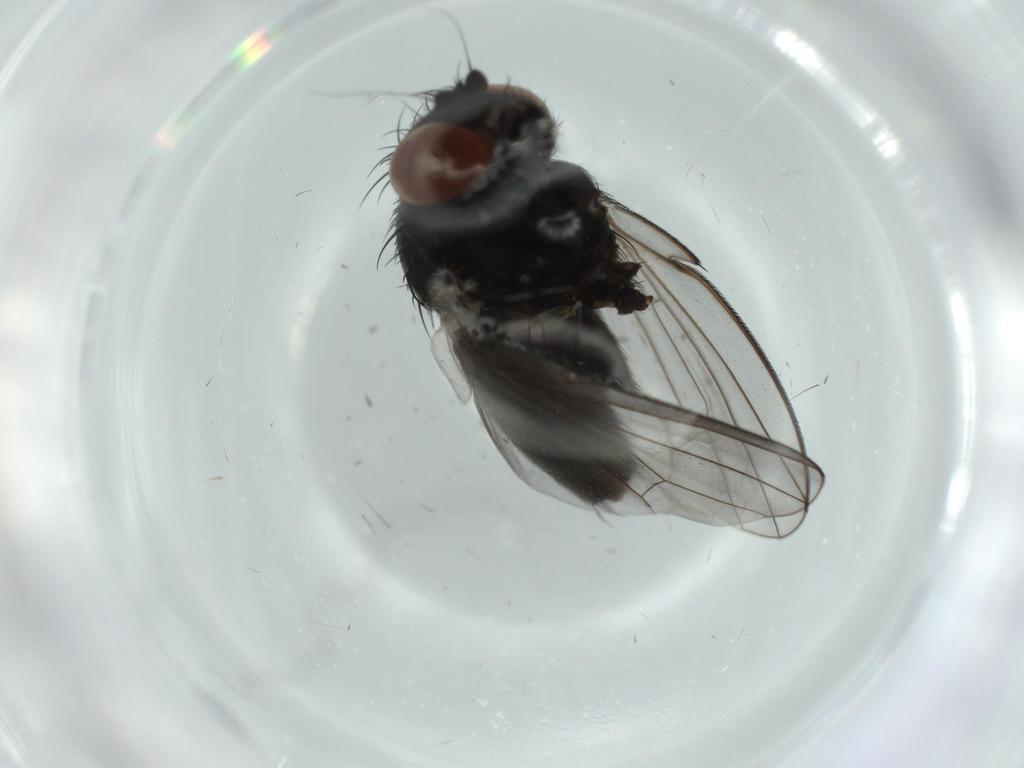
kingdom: Animalia
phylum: Arthropoda
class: Insecta
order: Diptera
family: Milichiidae
